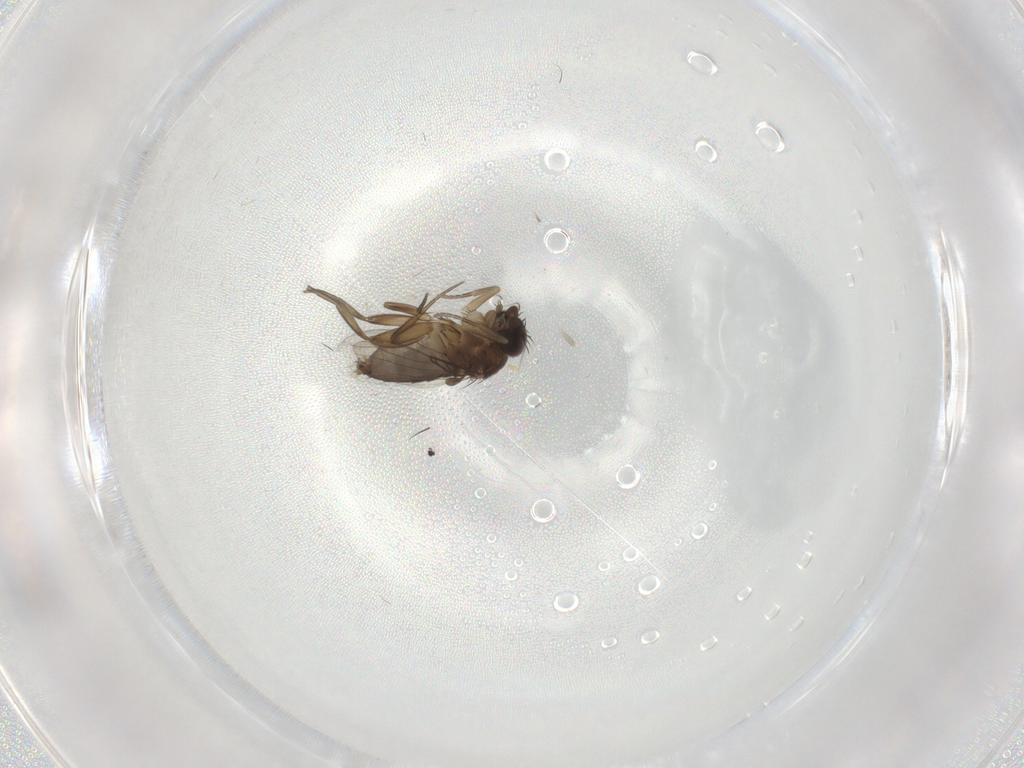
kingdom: Animalia
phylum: Arthropoda
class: Insecta
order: Diptera
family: Cecidomyiidae
